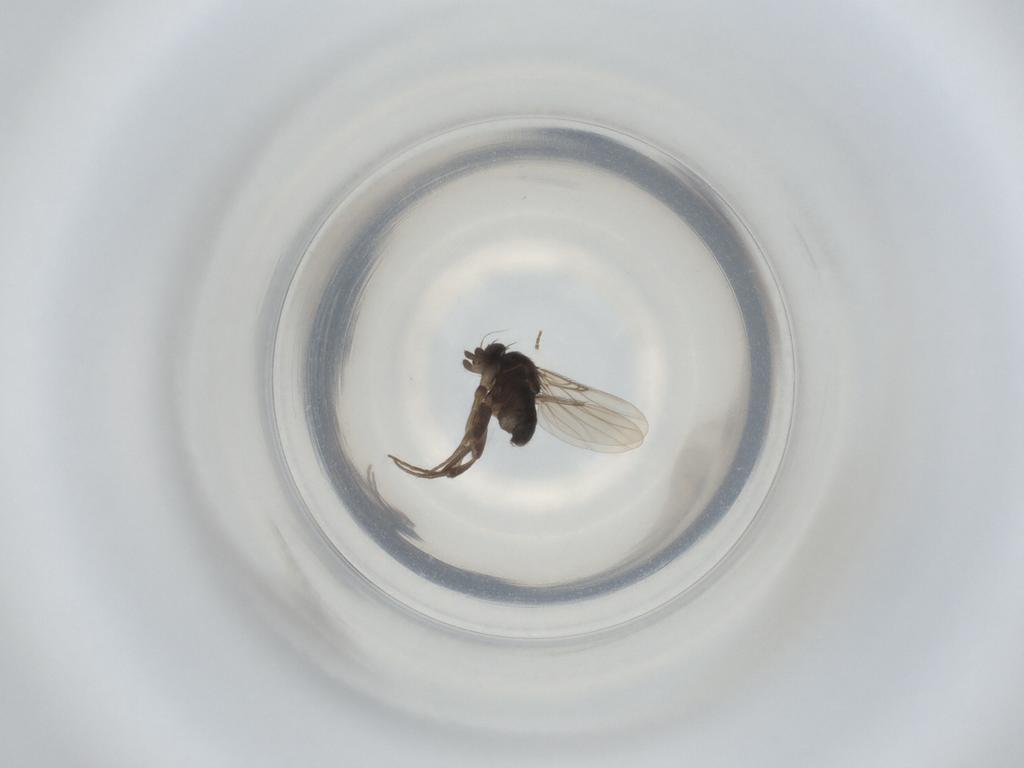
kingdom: Animalia
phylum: Arthropoda
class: Insecta
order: Diptera
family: Phoridae
